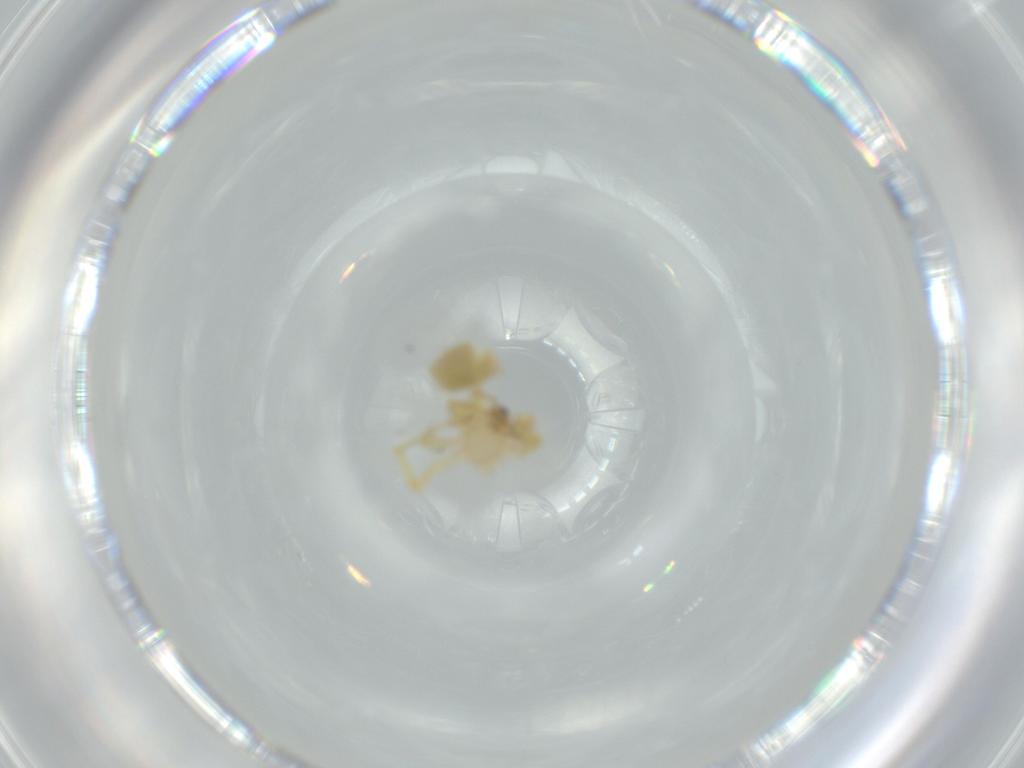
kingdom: Animalia
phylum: Arthropoda
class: Arachnida
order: Araneae
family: Oonopidae
